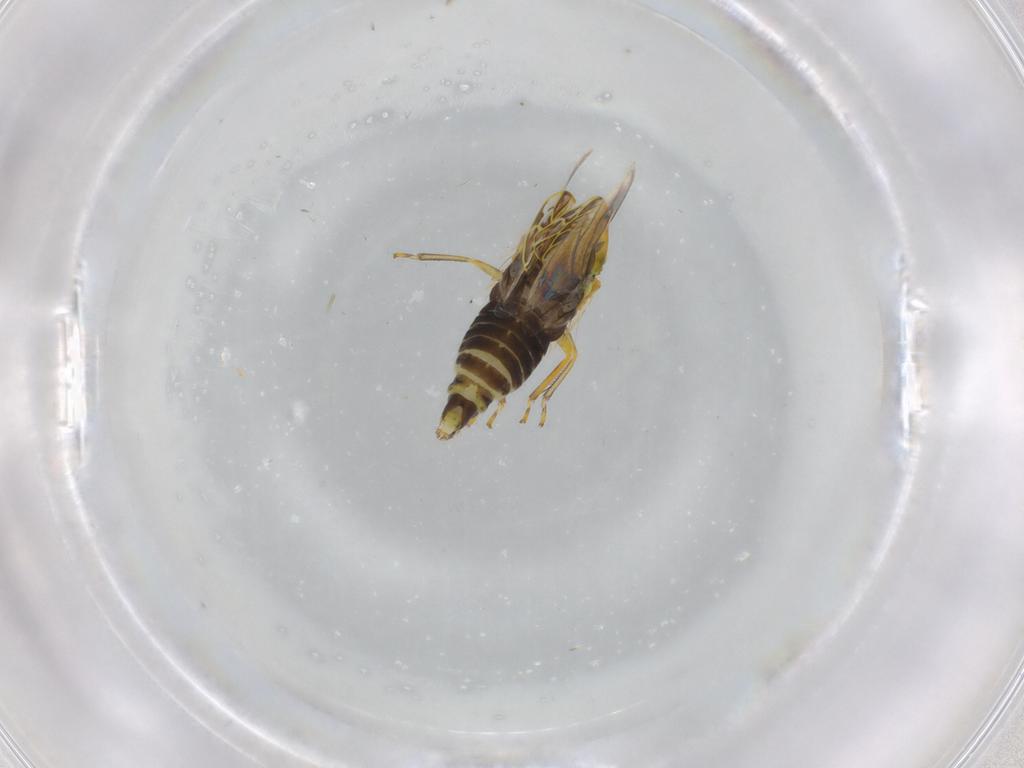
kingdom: Animalia
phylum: Arthropoda
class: Insecta
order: Hemiptera
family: Cicadellidae
